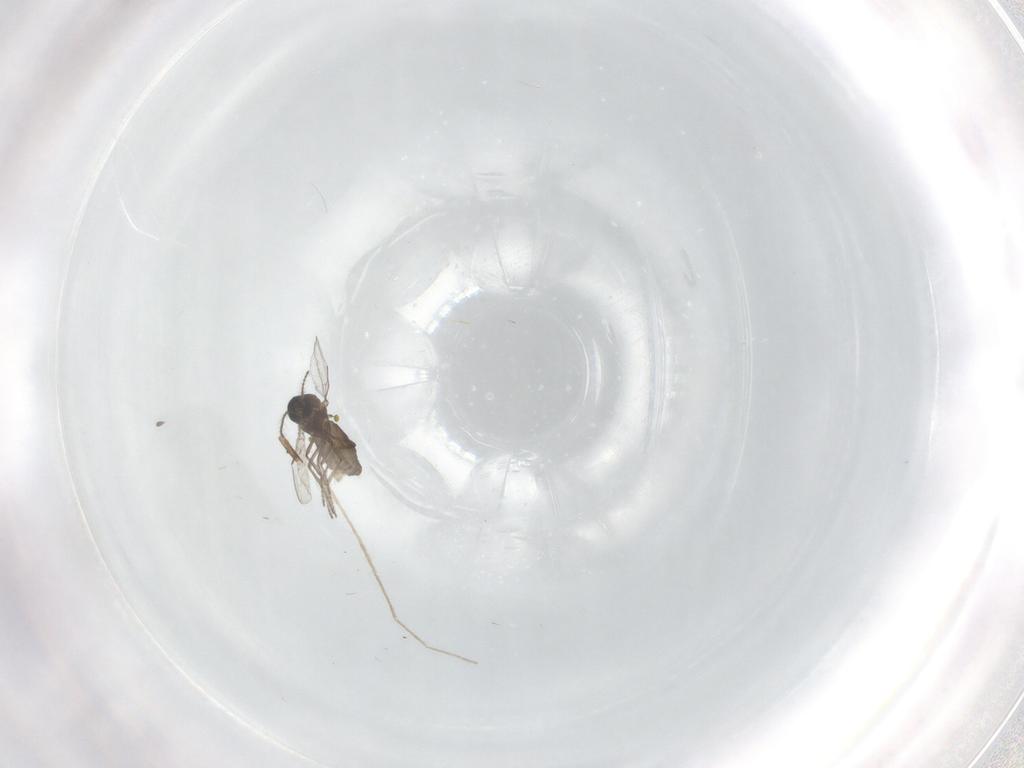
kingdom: Animalia
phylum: Arthropoda
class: Insecta
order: Diptera
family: Ceratopogonidae
